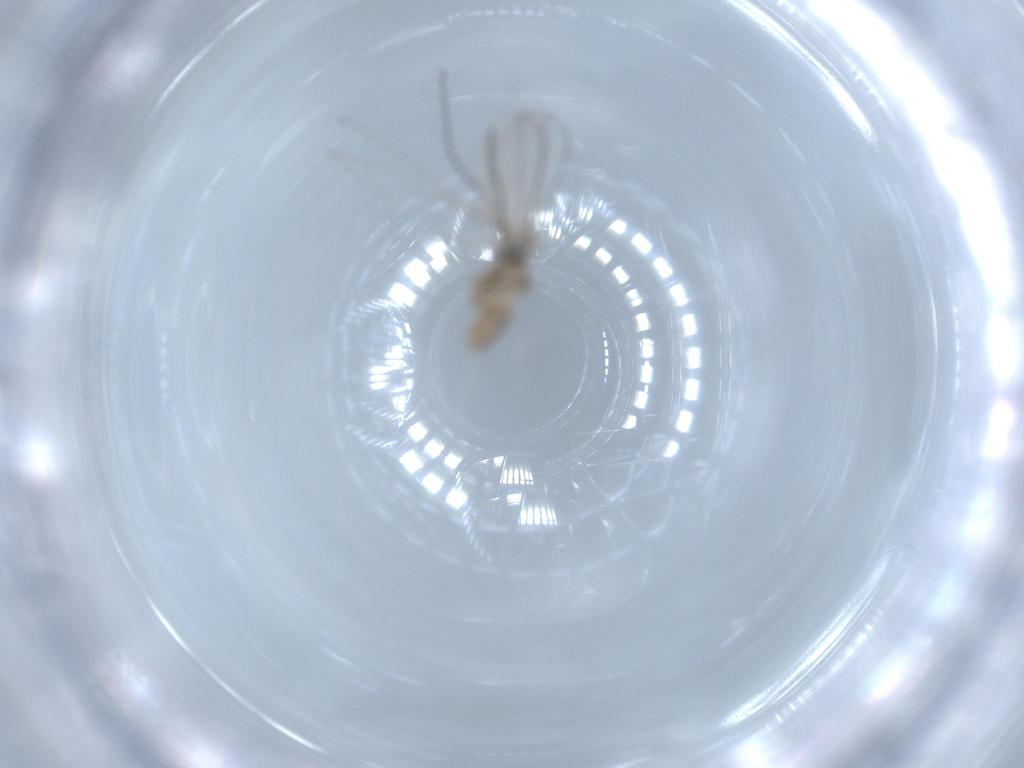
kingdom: Animalia
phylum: Arthropoda
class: Insecta
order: Diptera
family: Cecidomyiidae
